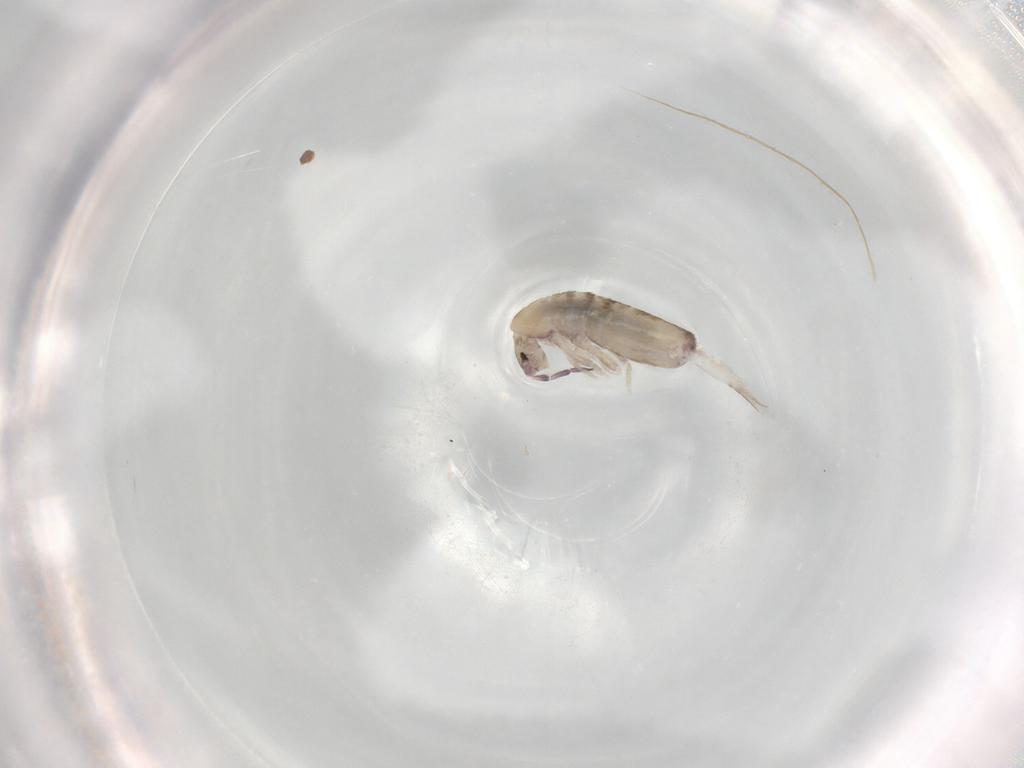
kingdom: Animalia
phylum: Arthropoda
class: Collembola
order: Entomobryomorpha
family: Entomobryidae
